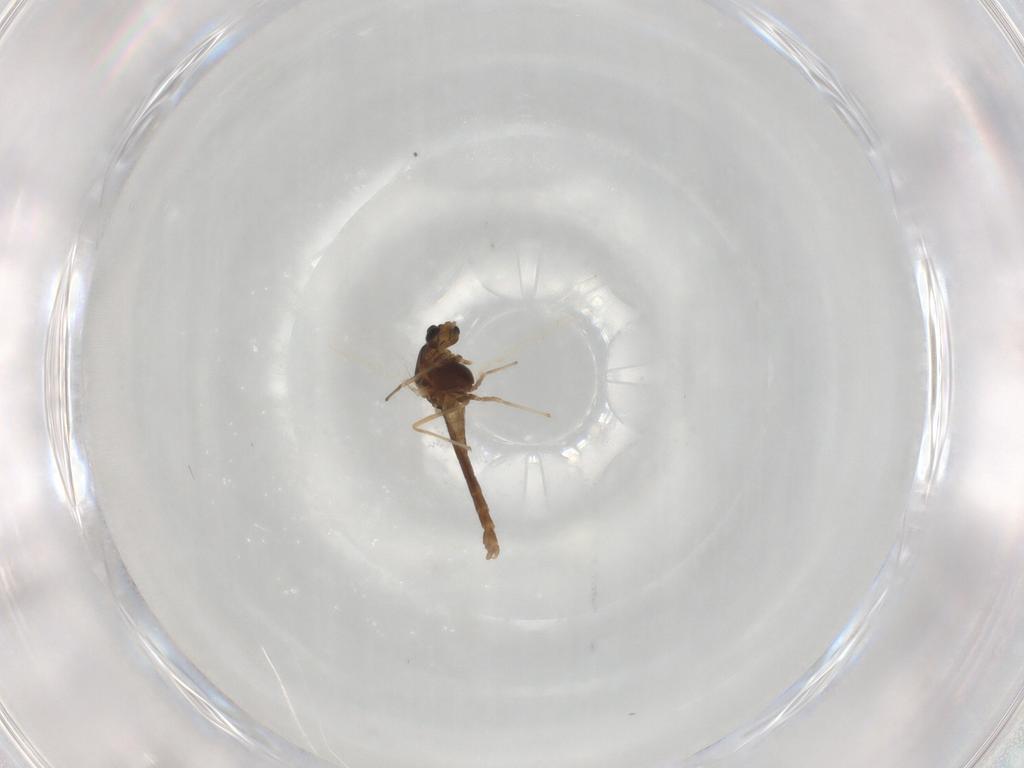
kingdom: Animalia
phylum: Arthropoda
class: Insecta
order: Diptera
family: Chironomidae
